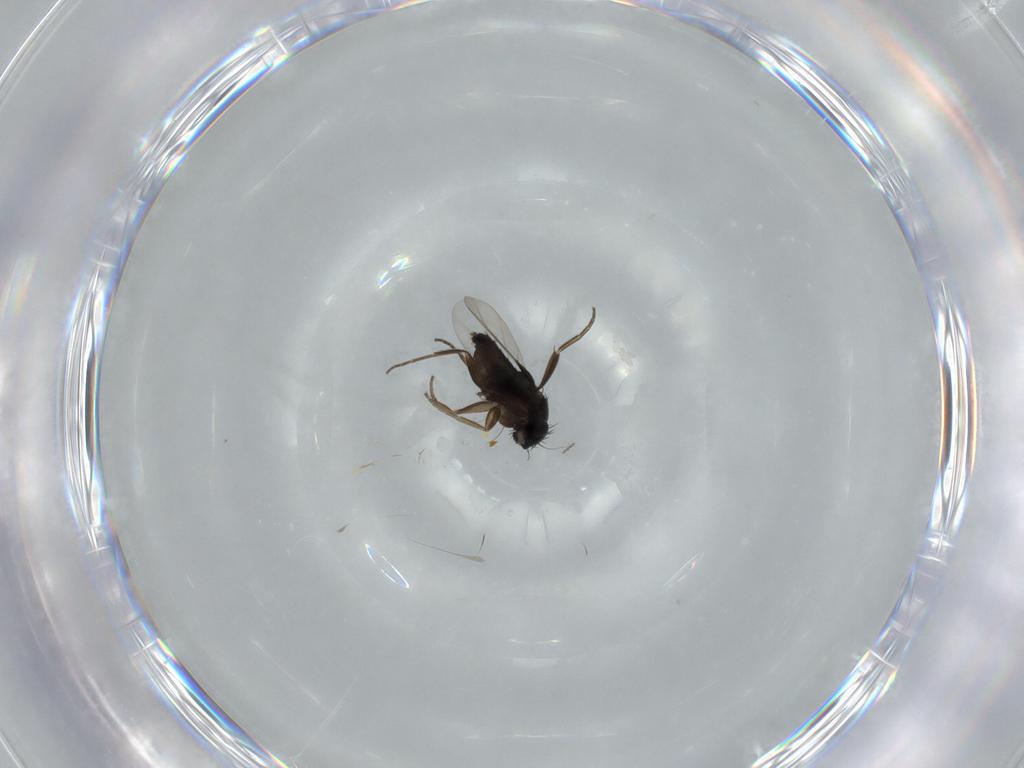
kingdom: Animalia
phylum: Arthropoda
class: Insecta
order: Diptera
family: Phoridae
